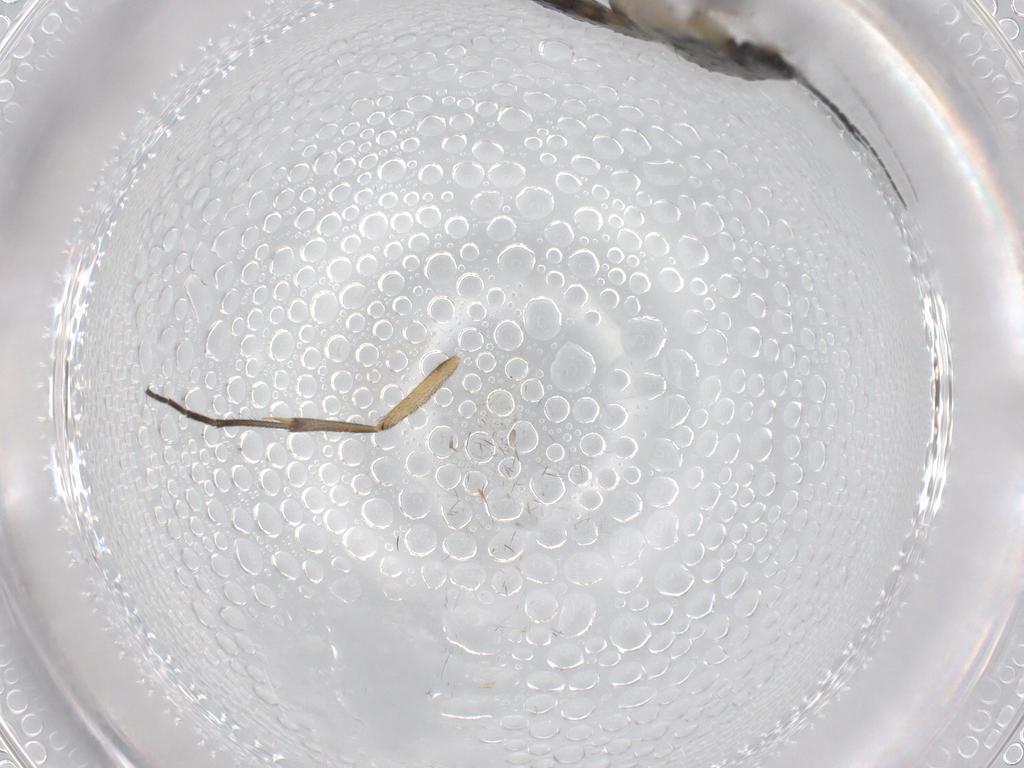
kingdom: Animalia
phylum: Arthropoda
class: Insecta
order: Diptera
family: Mycetophilidae
